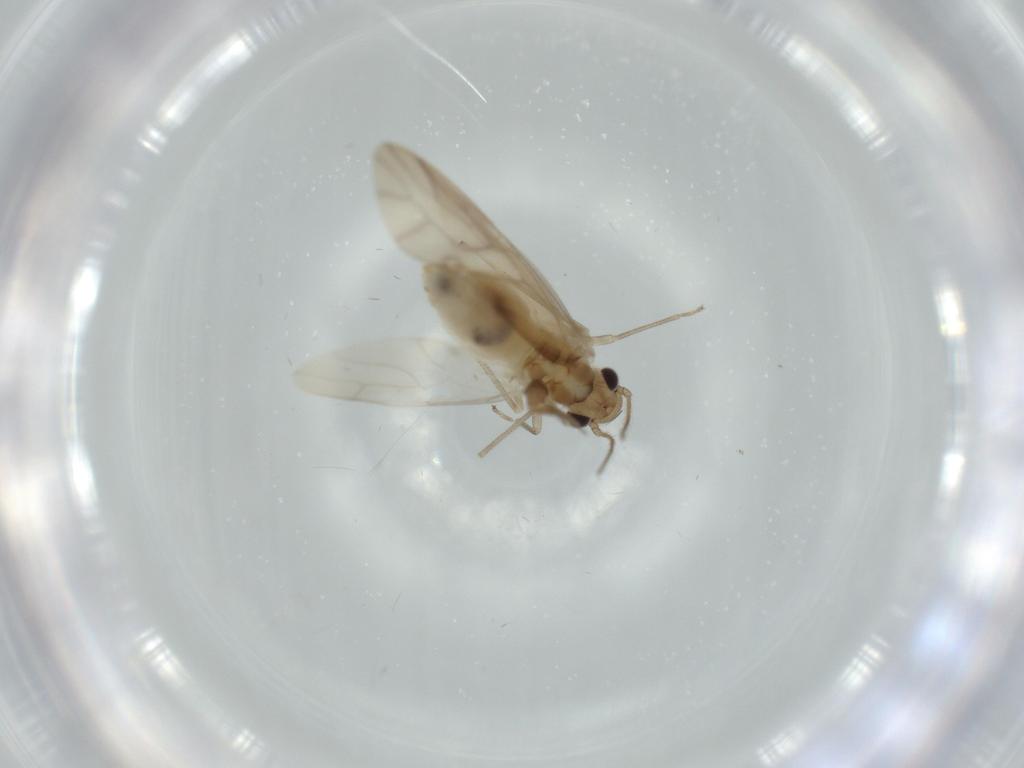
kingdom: Animalia
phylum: Arthropoda
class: Insecta
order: Psocodea
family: Caeciliusidae
